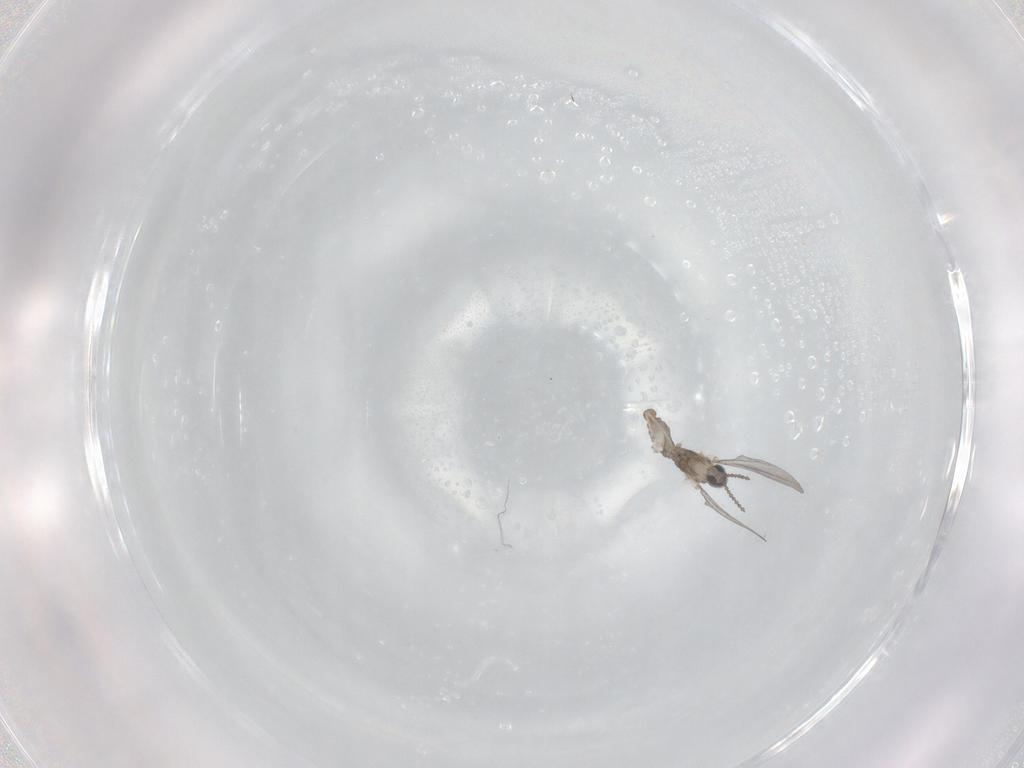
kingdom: Animalia
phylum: Arthropoda
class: Insecta
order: Diptera
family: Cecidomyiidae
